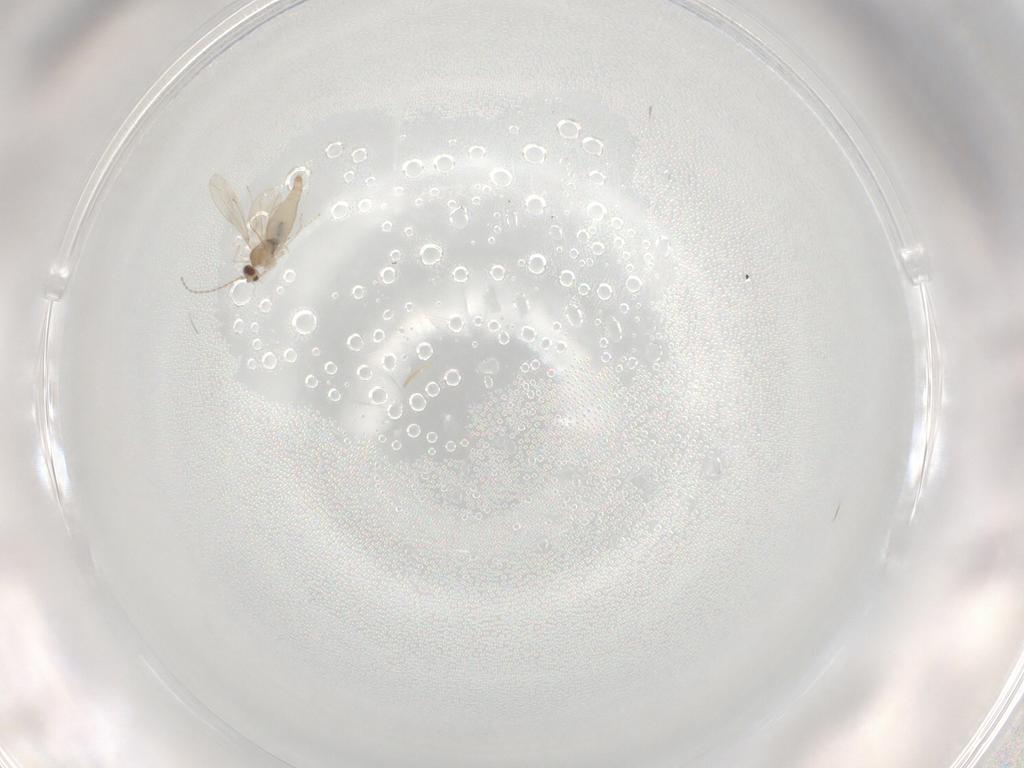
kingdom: Animalia
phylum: Arthropoda
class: Insecta
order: Diptera
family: Cecidomyiidae
